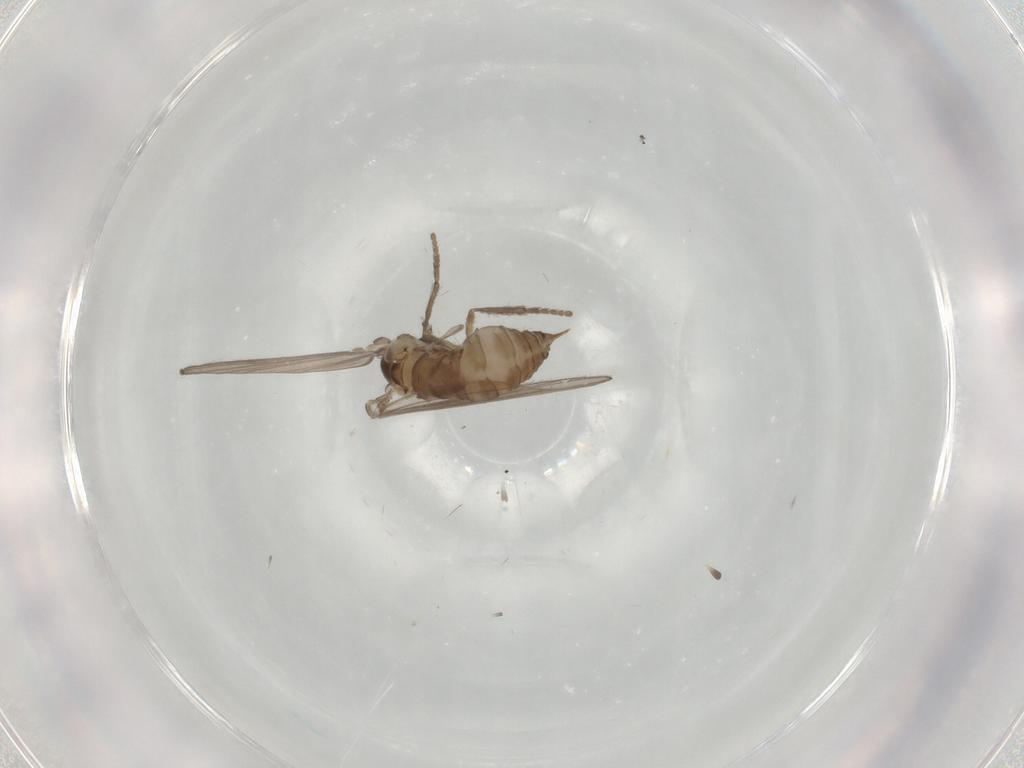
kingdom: Animalia
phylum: Arthropoda
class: Insecta
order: Diptera
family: Psychodidae
